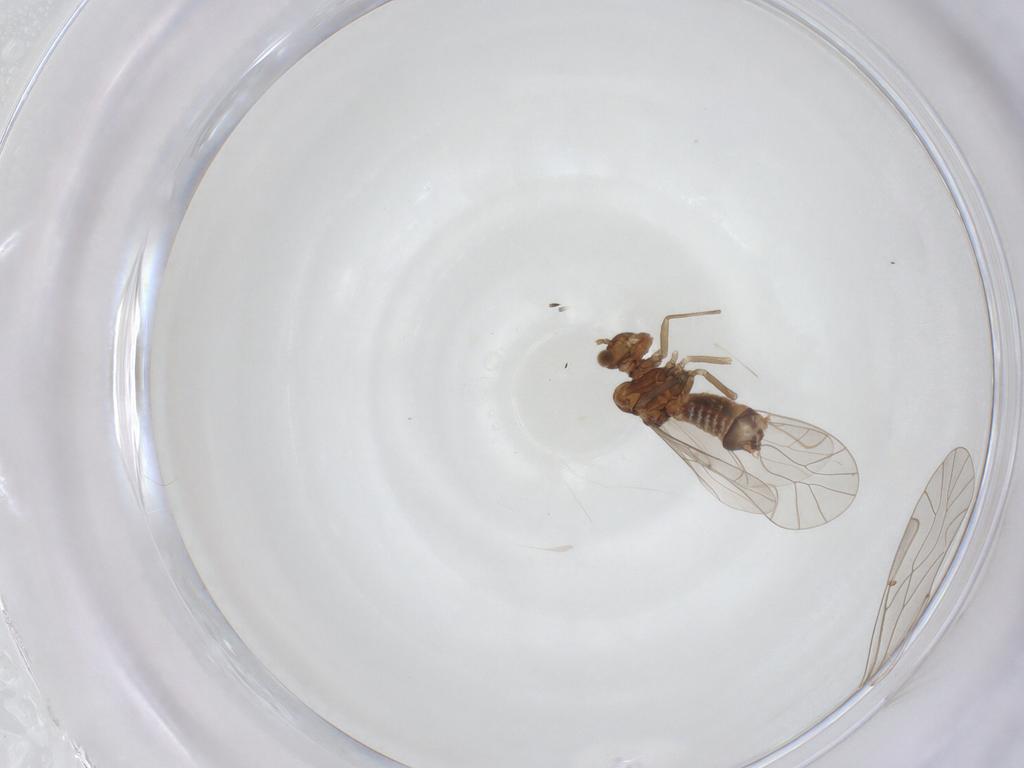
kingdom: Animalia
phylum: Arthropoda
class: Insecta
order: Psocodea
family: Lachesillidae
